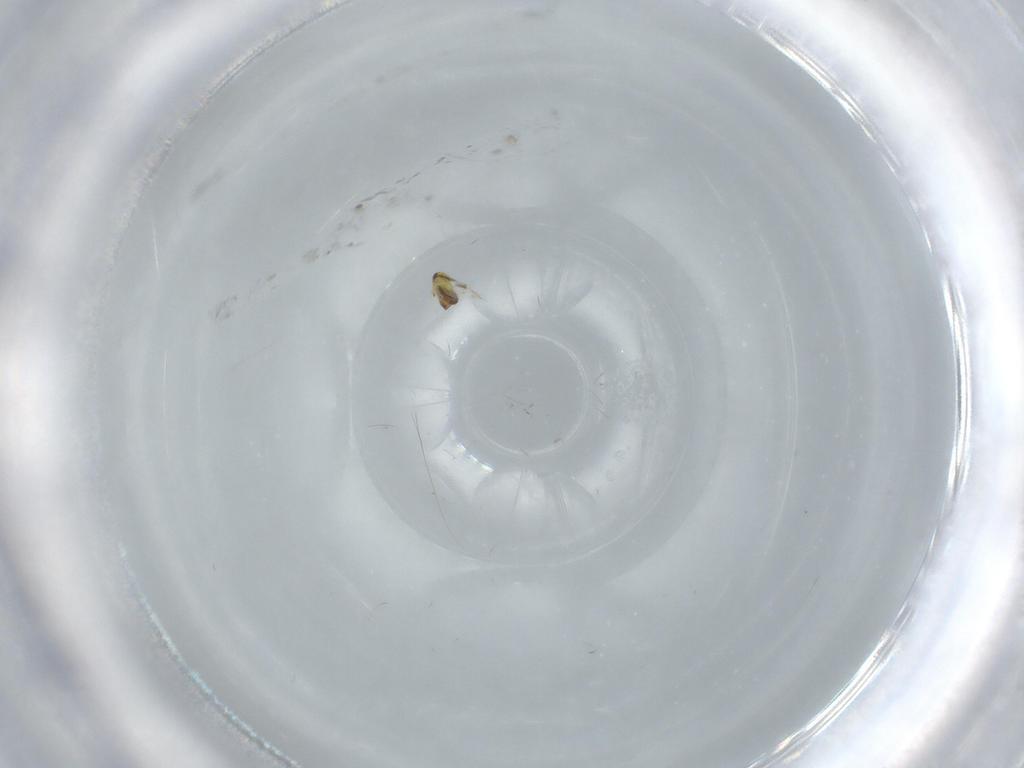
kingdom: Animalia
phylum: Arthropoda
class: Insecta
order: Hymenoptera
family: Signiphoridae
